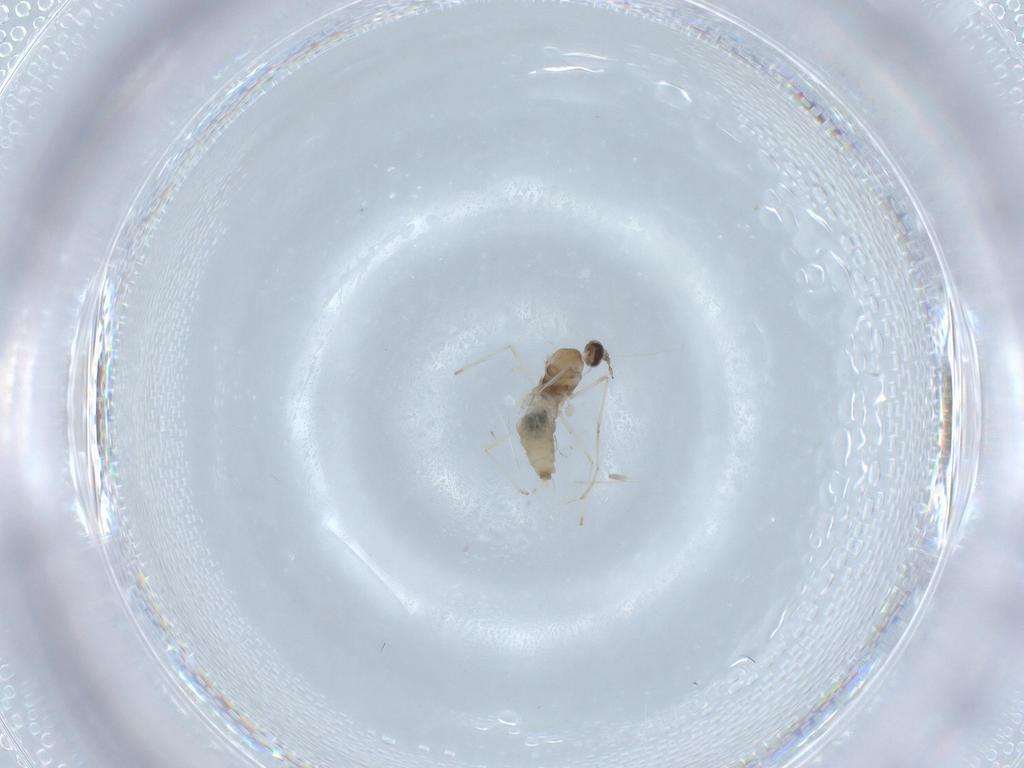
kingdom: Animalia
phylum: Arthropoda
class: Insecta
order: Diptera
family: Cecidomyiidae
